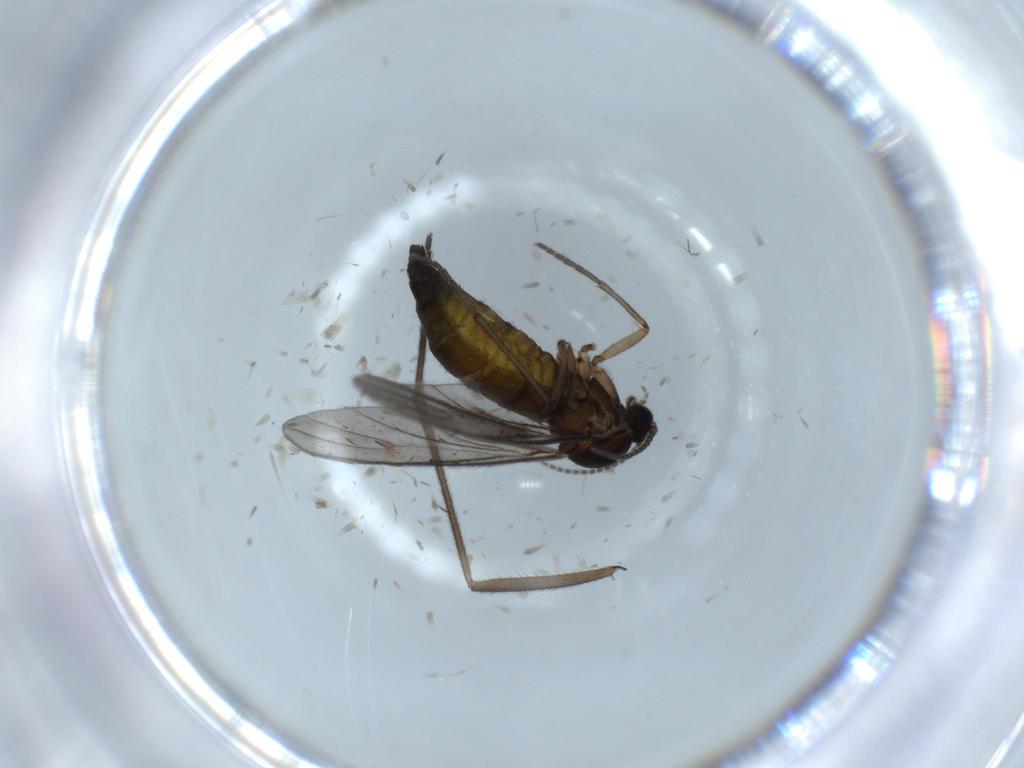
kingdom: Animalia
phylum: Arthropoda
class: Insecta
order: Diptera
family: Sciaridae
